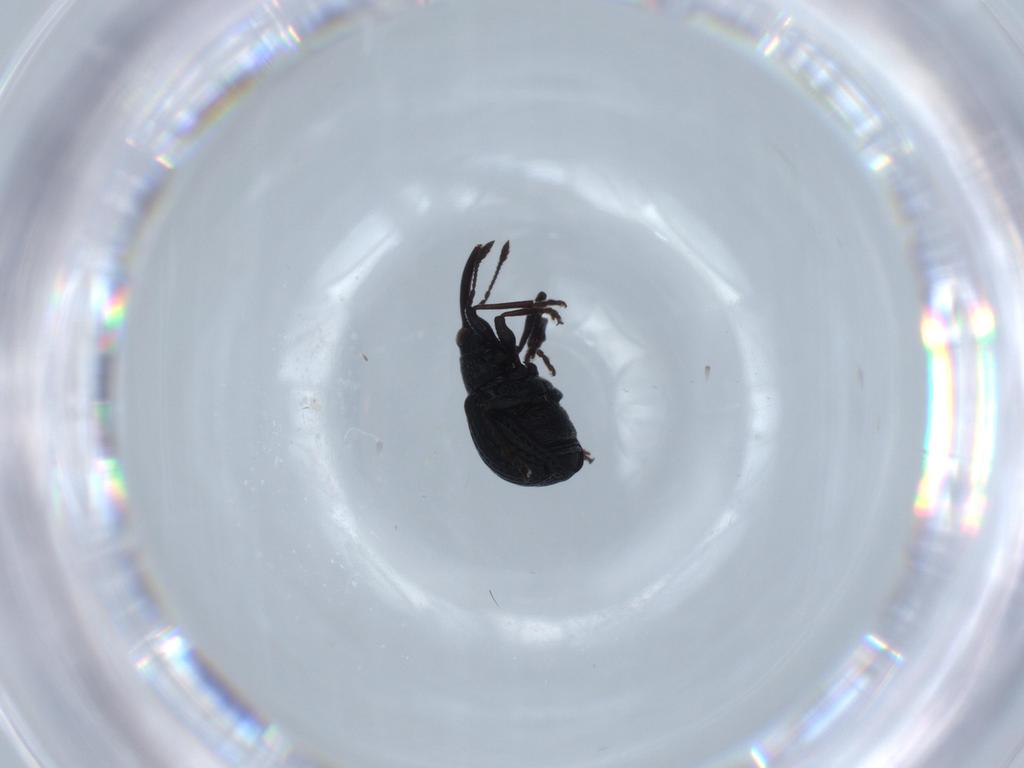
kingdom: Animalia
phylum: Arthropoda
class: Insecta
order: Coleoptera
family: Brentidae
